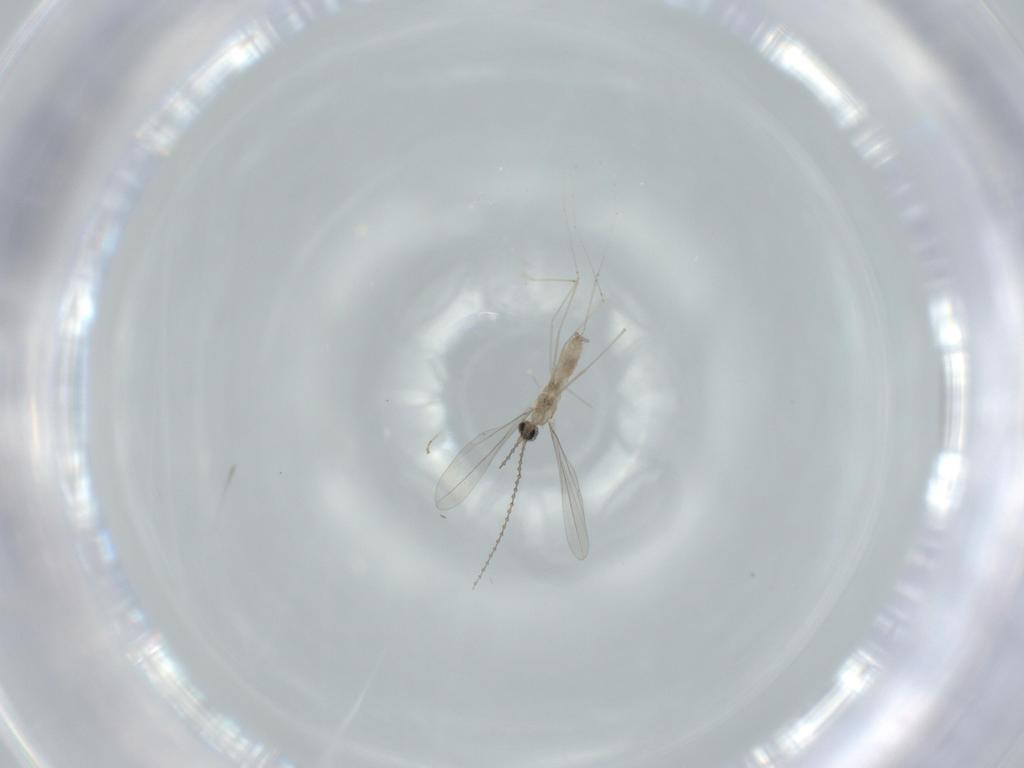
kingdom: Animalia
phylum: Arthropoda
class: Insecta
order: Diptera
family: Cecidomyiidae
